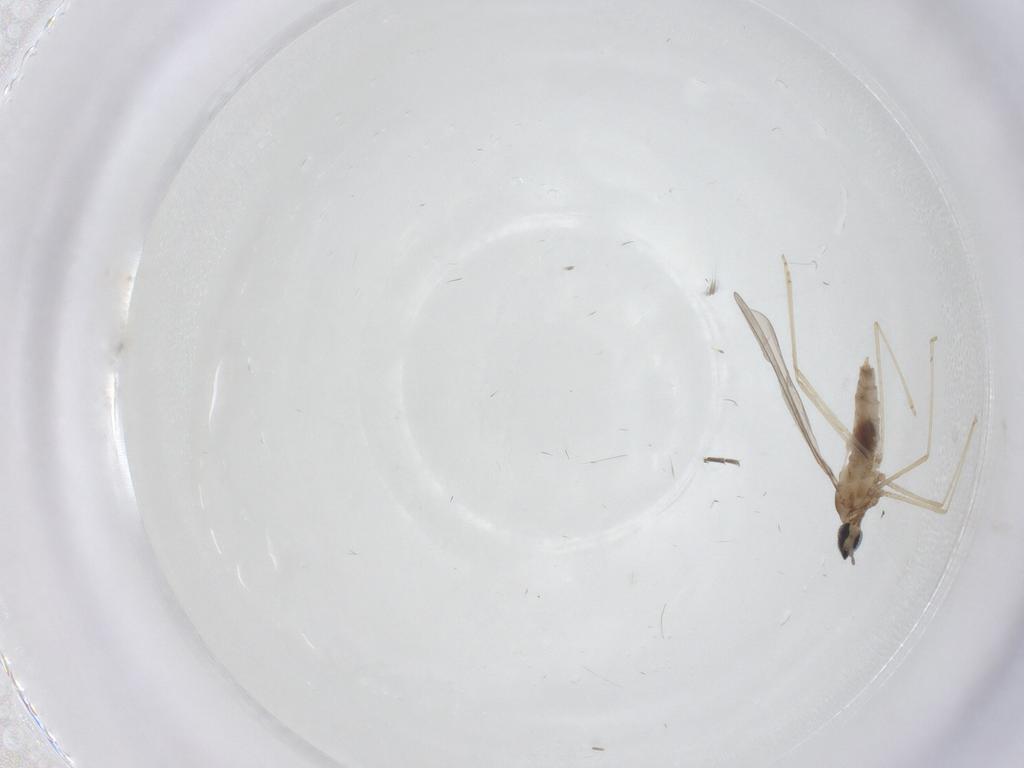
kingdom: Animalia
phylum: Arthropoda
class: Insecta
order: Diptera
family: Cecidomyiidae
